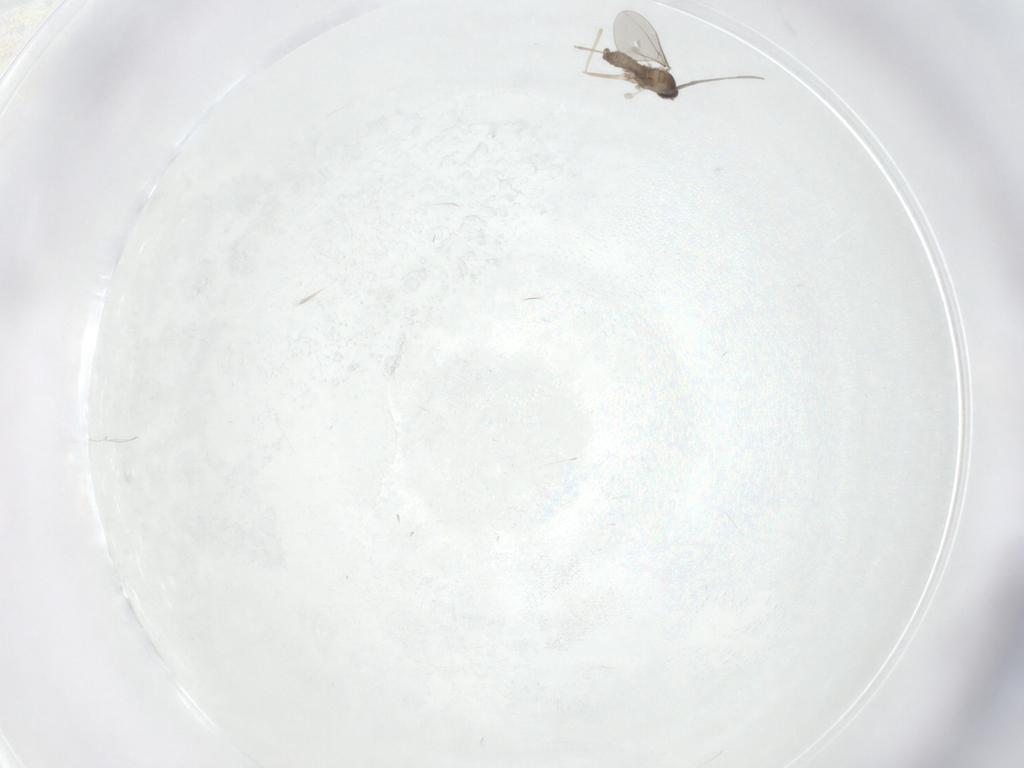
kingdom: Animalia
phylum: Arthropoda
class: Insecta
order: Diptera
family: Cecidomyiidae
